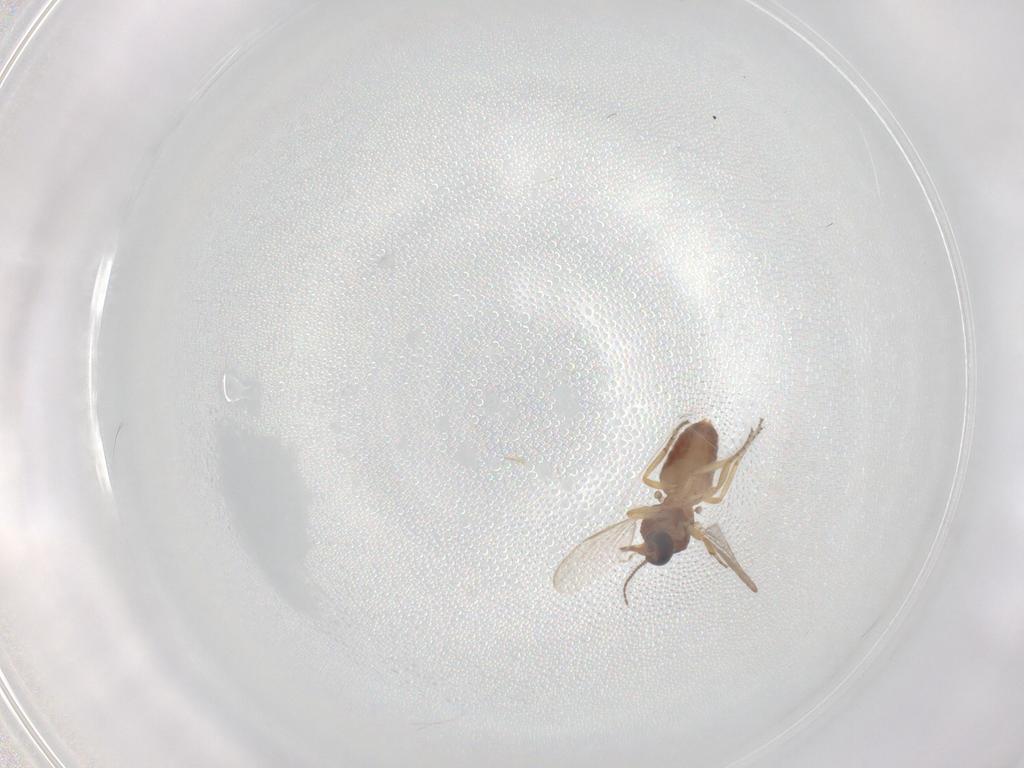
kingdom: Animalia
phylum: Arthropoda
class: Insecta
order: Diptera
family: Ceratopogonidae
